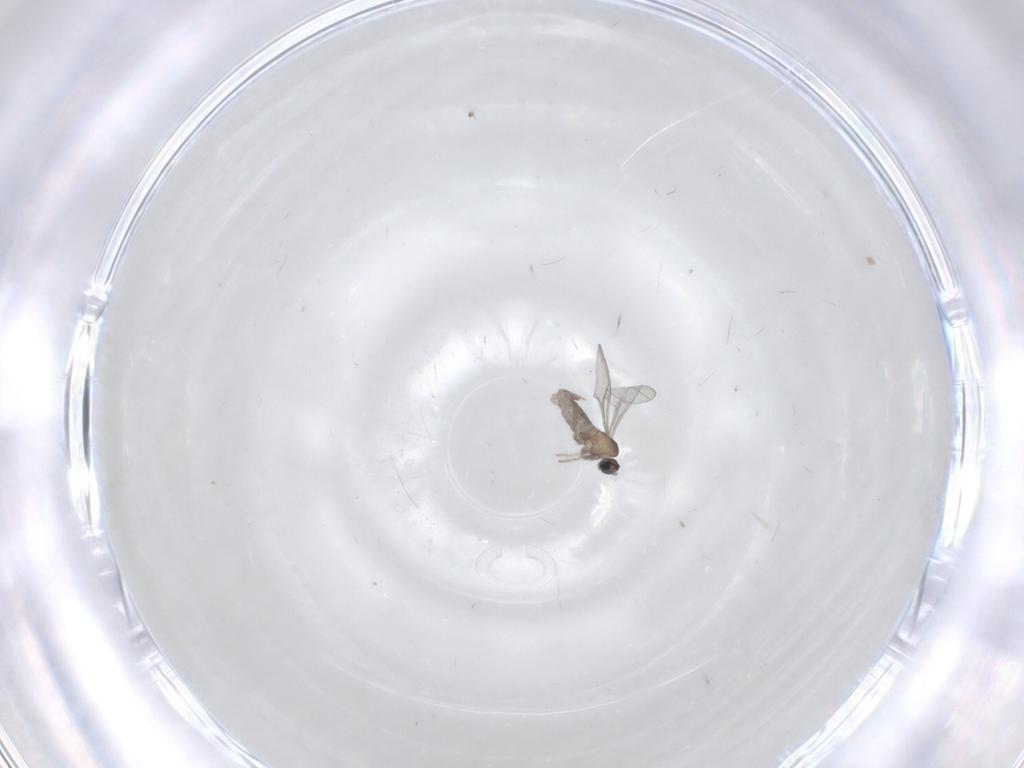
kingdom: Animalia
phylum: Arthropoda
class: Insecta
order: Diptera
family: Cecidomyiidae
